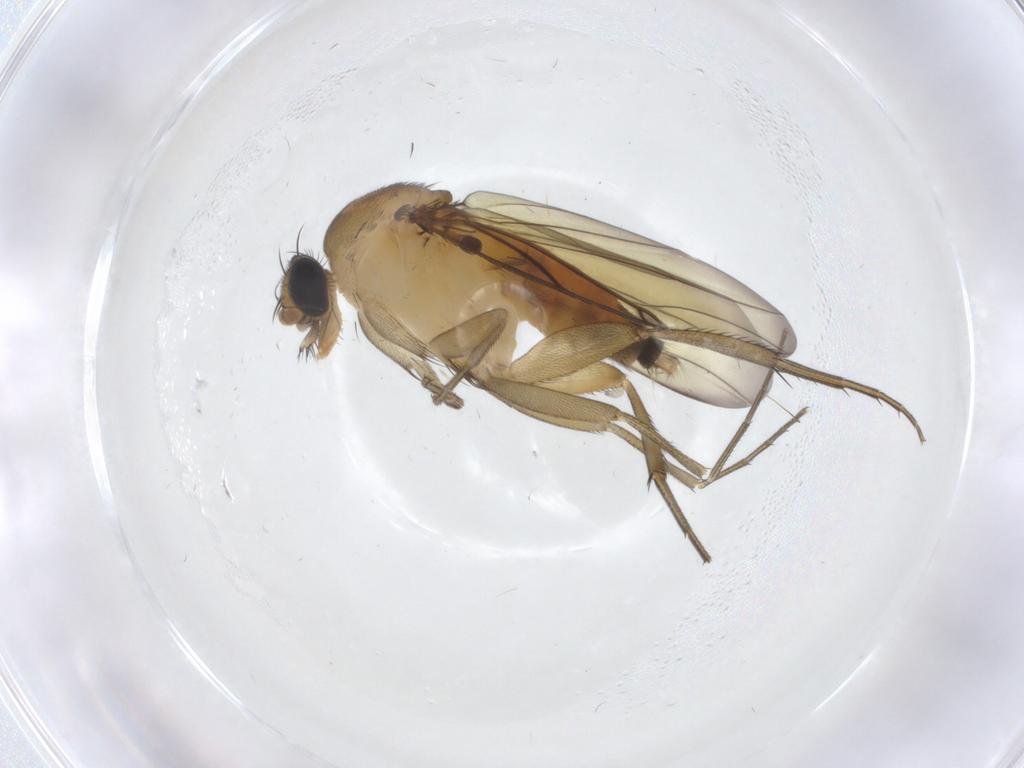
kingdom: Animalia
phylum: Arthropoda
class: Insecta
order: Diptera
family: Phoridae
